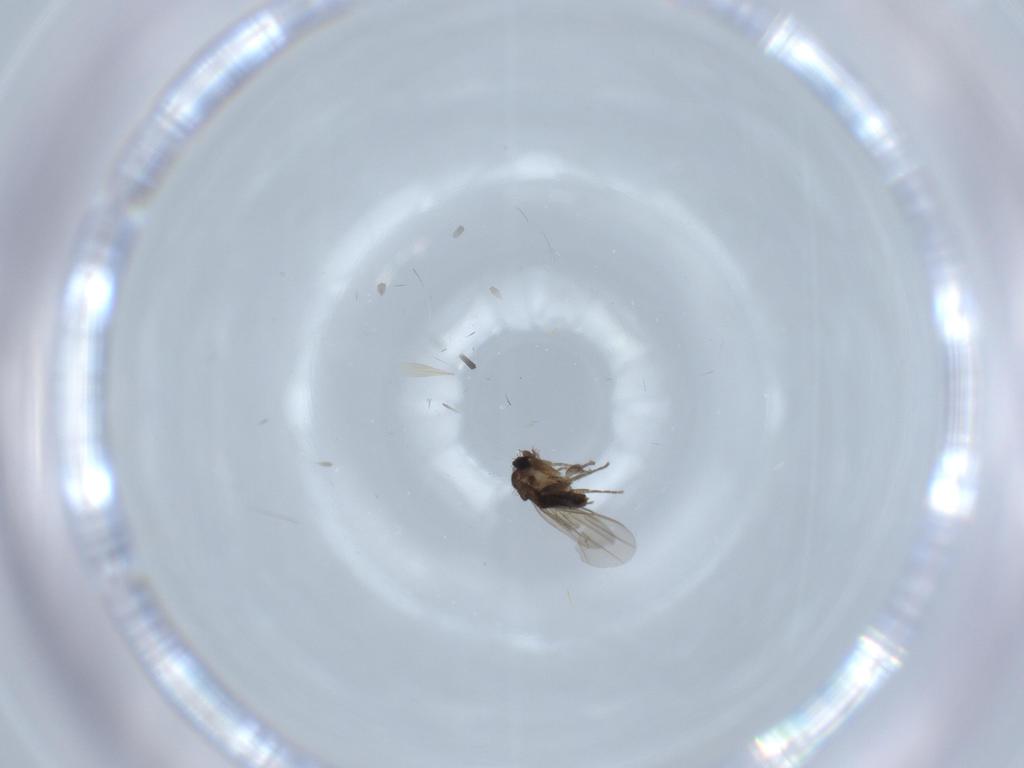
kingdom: Animalia
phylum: Arthropoda
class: Insecta
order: Diptera
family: Phoridae
